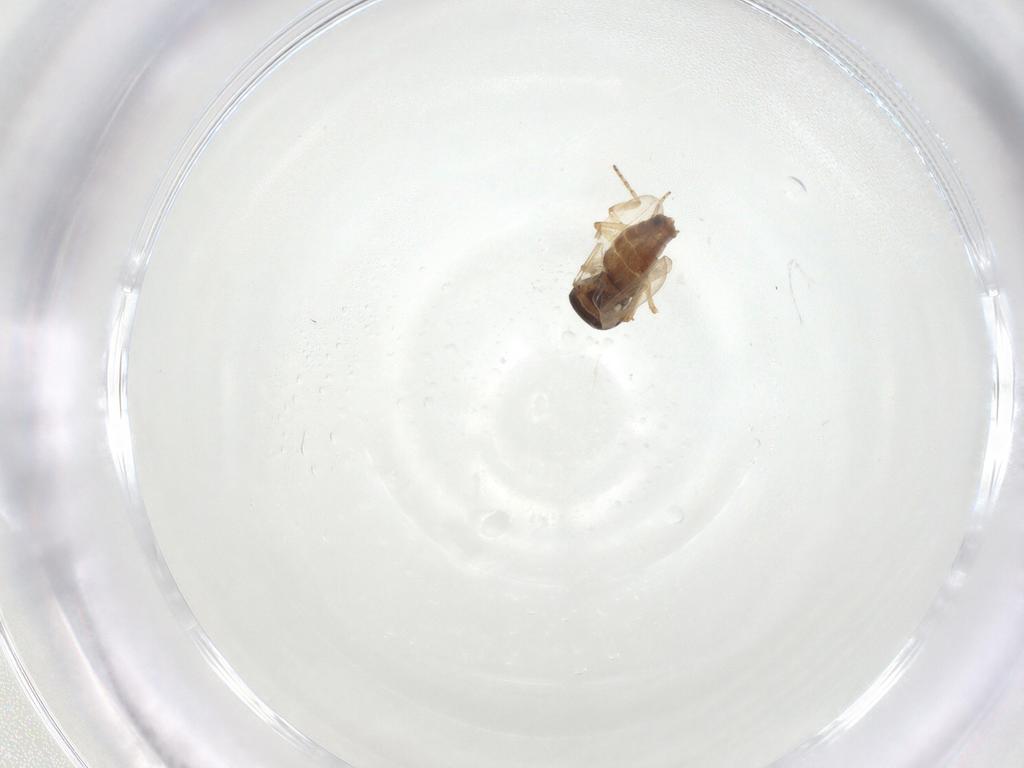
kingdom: Animalia
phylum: Arthropoda
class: Insecta
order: Diptera
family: Ceratopogonidae
